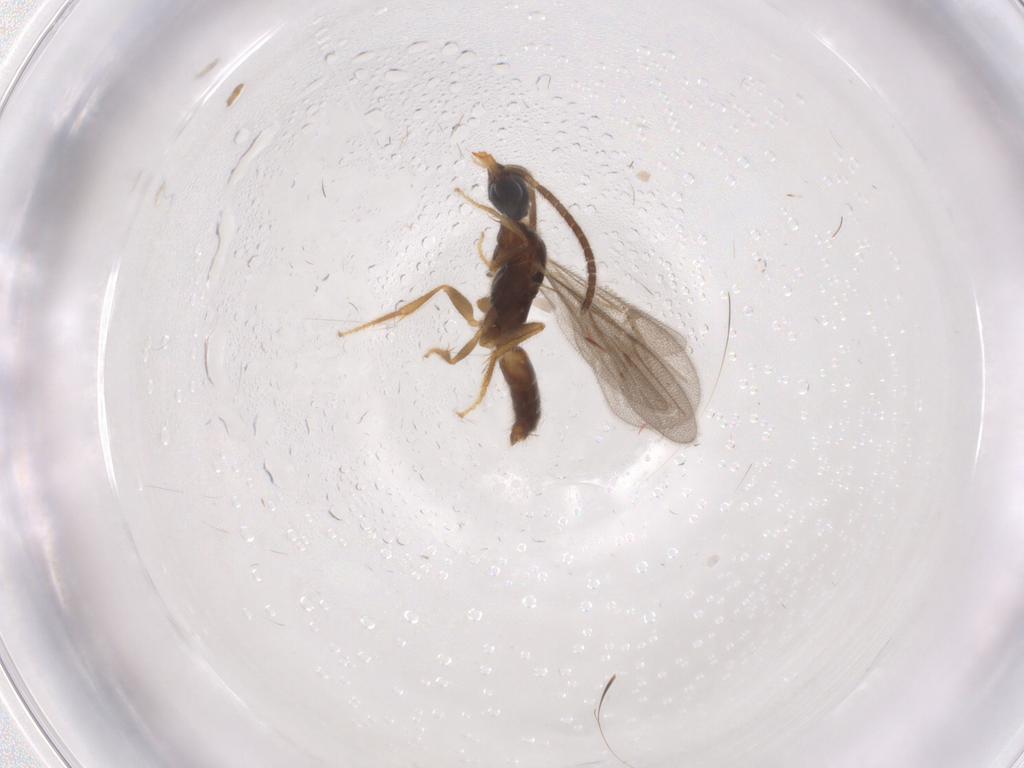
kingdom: Animalia
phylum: Arthropoda
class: Insecta
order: Hymenoptera
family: Bethylidae
